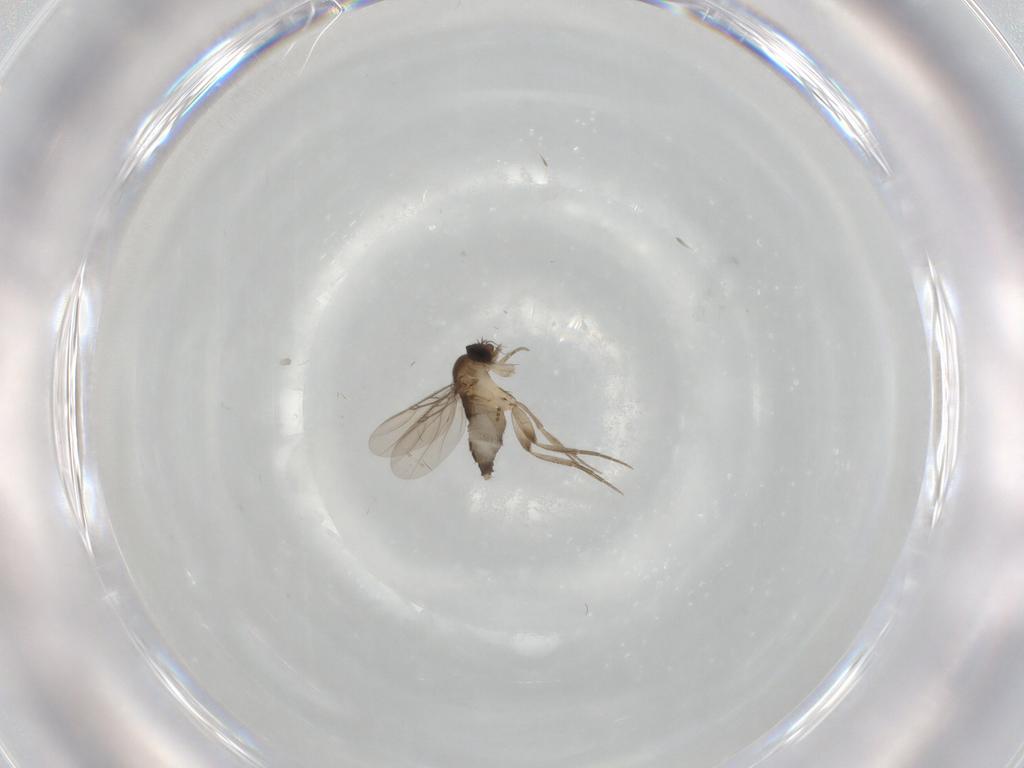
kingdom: Animalia
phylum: Arthropoda
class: Insecta
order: Diptera
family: Phoridae
